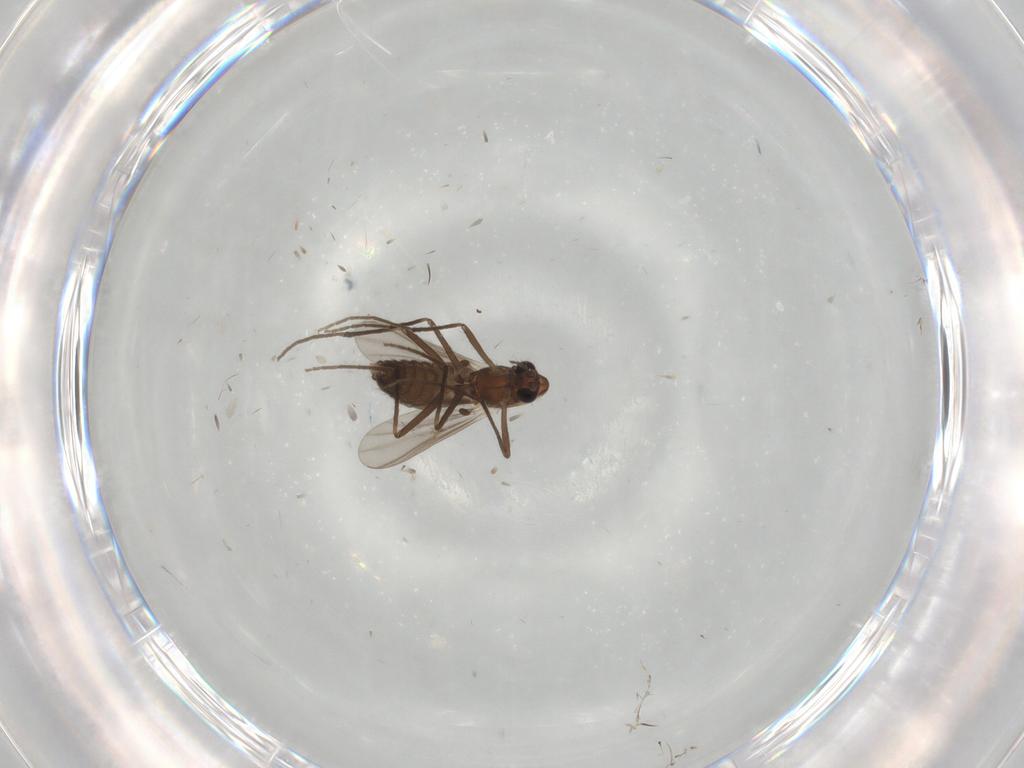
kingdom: Animalia
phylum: Arthropoda
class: Insecta
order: Diptera
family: Chironomidae
